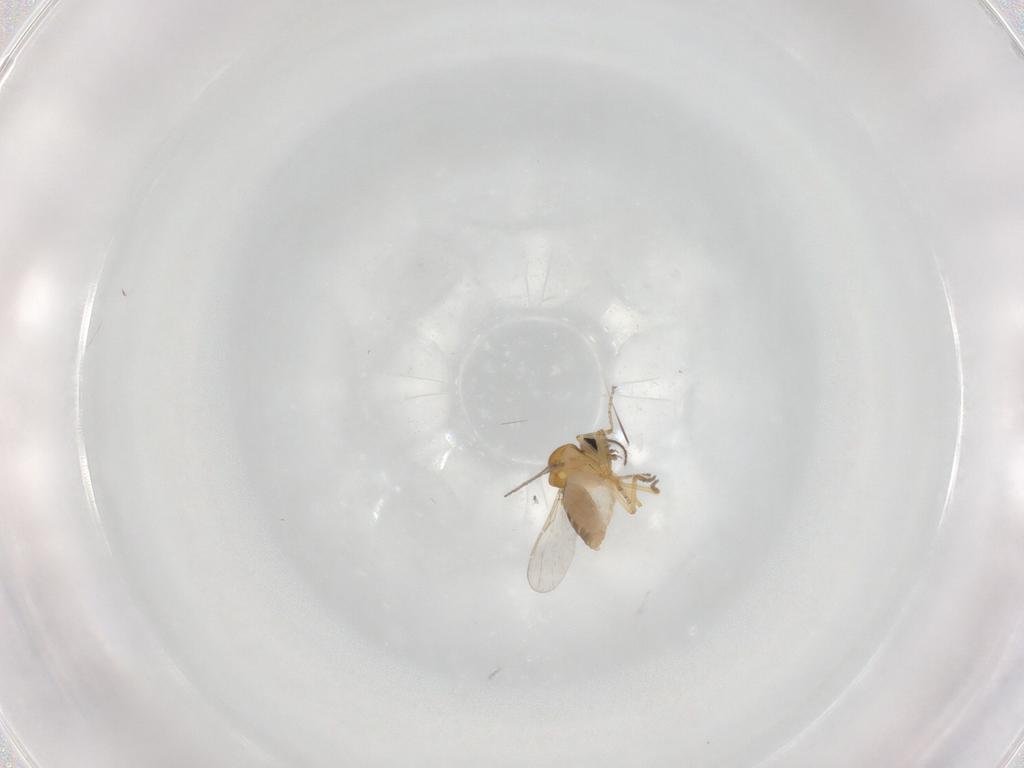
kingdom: Animalia
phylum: Arthropoda
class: Insecta
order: Diptera
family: Ceratopogonidae
